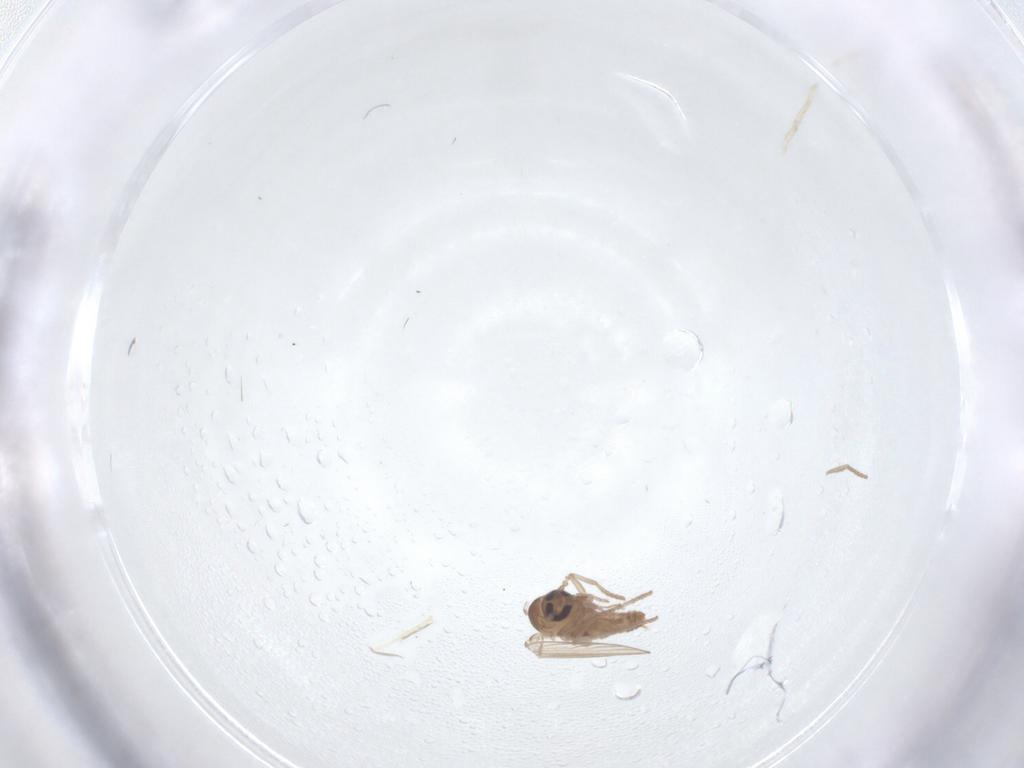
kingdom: Animalia
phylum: Arthropoda
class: Insecta
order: Diptera
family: Psychodidae
